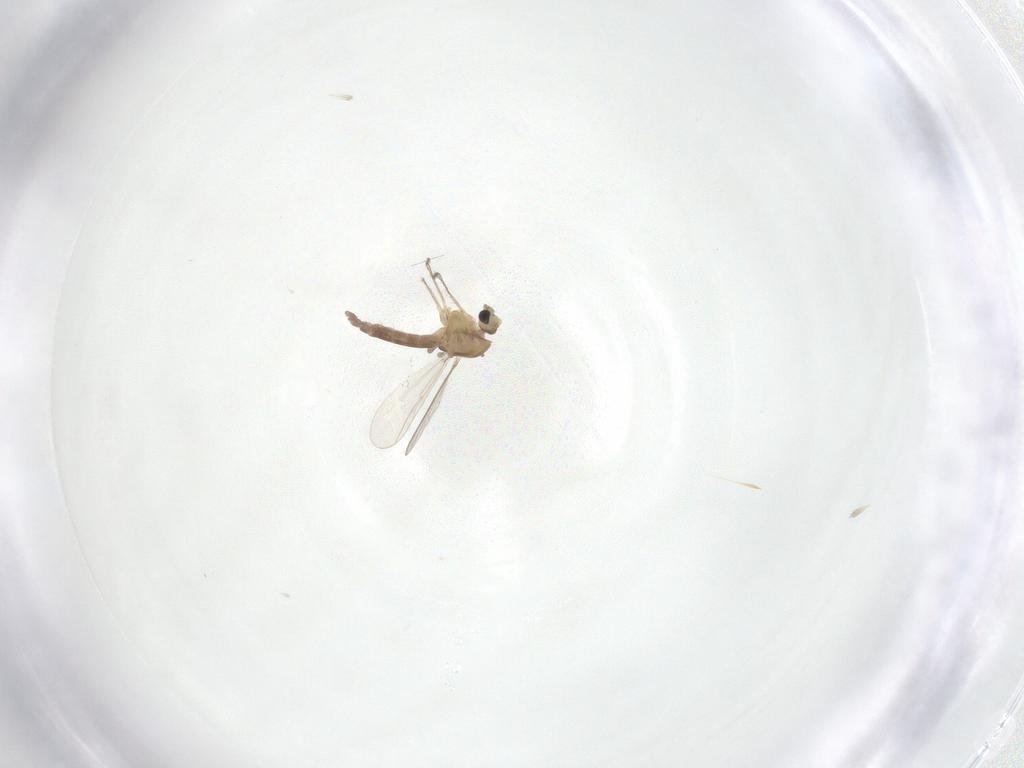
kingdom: Animalia
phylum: Arthropoda
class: Insecta
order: Diptera
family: Chironomidae
